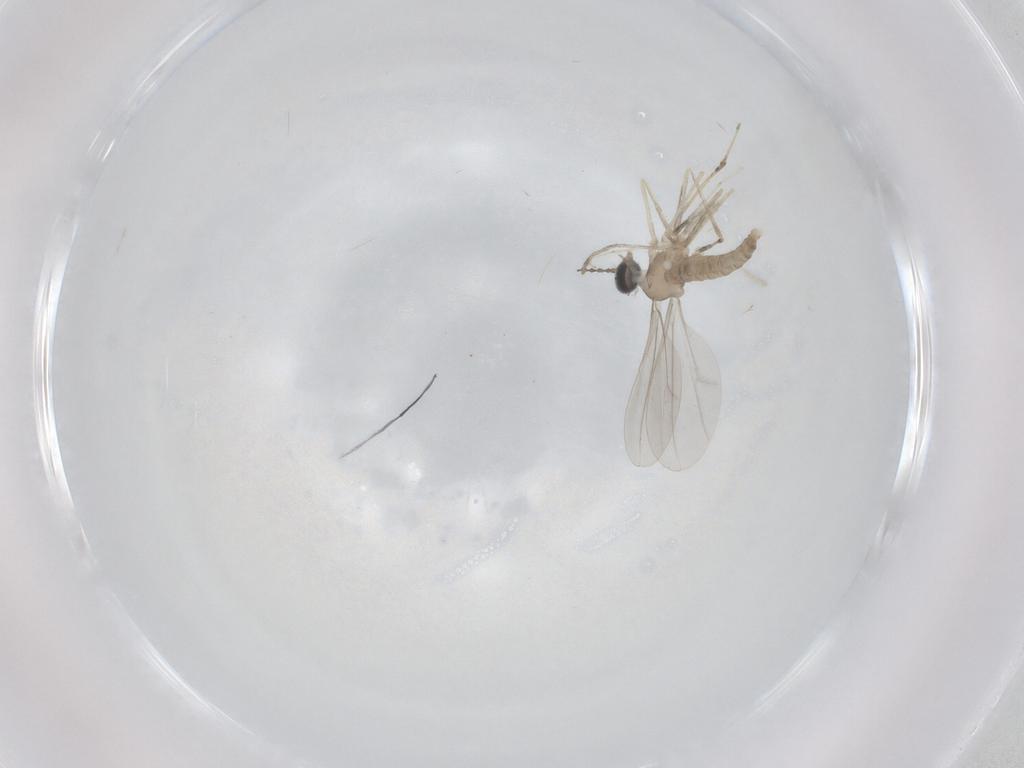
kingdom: Animalia
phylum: Arthropoda
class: Insecta
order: Diptera
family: Cecidomyiidae
